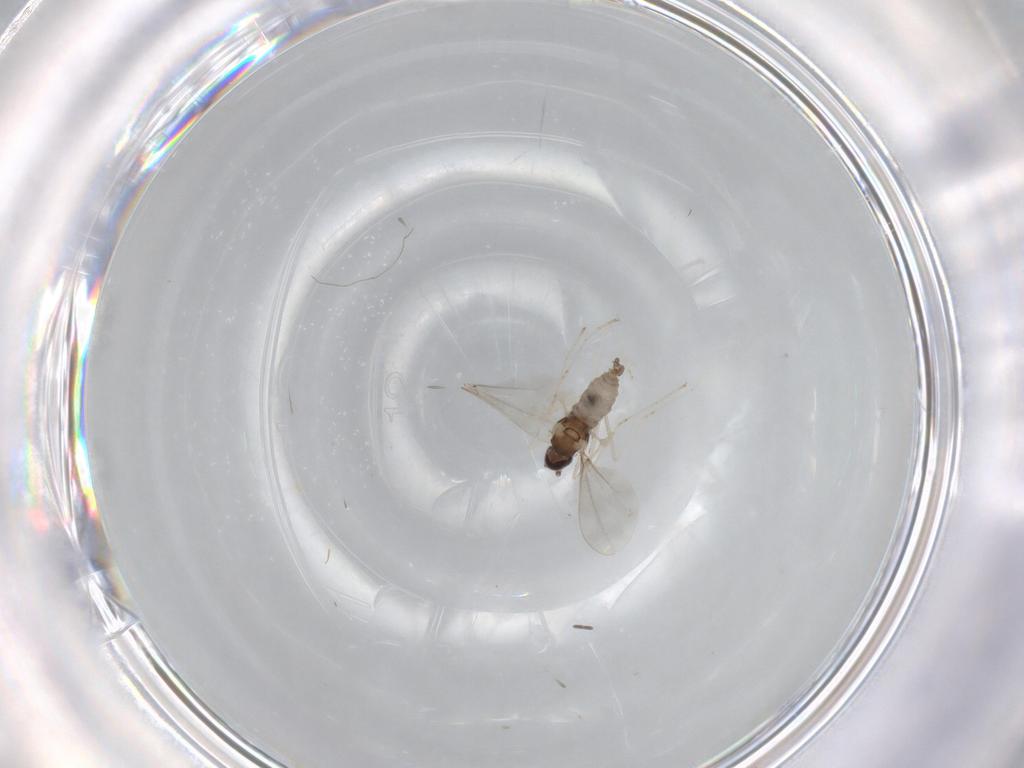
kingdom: Animalia
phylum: Arthropoda
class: Insecta
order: Diptera
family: Cecidomyiidae
